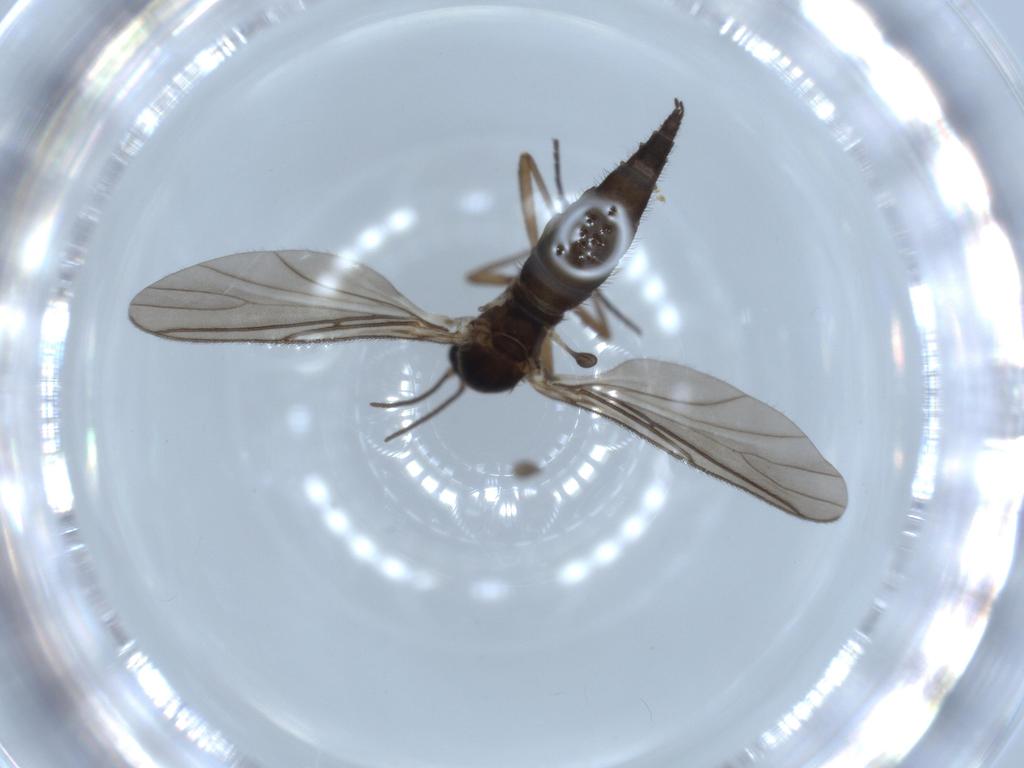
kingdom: Animalia
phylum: Arthropoda
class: Insecta
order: Diptera
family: Sciaridae
